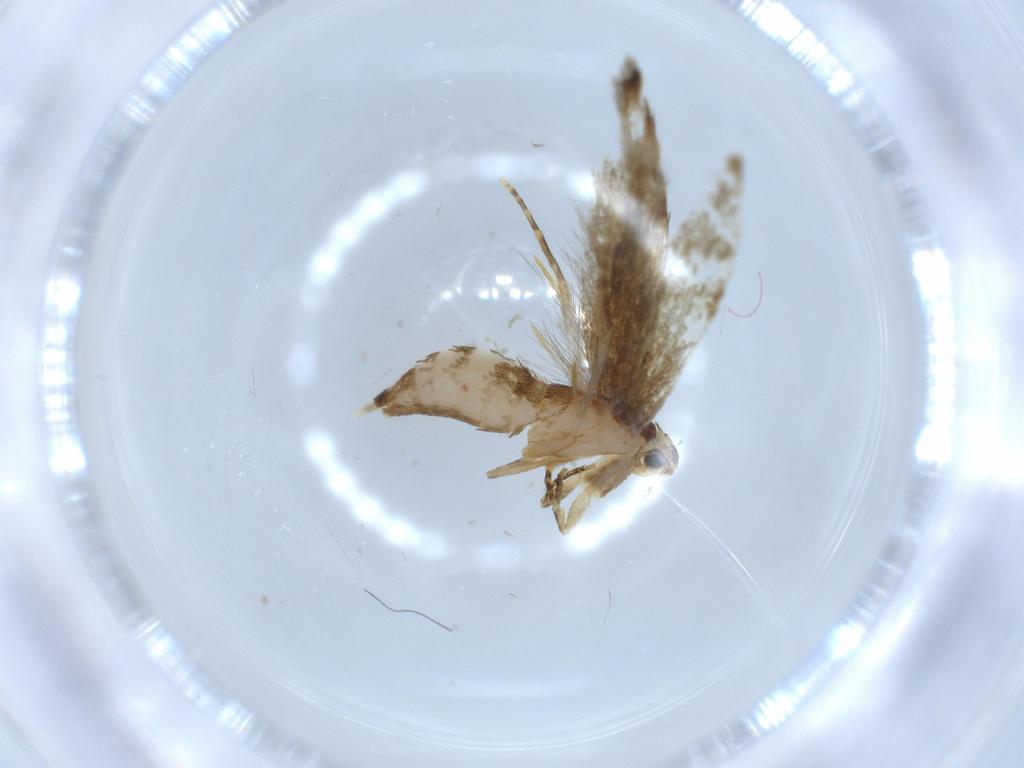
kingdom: Animalia
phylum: Arthropoda
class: Insecta
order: Lepidoptera
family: Tineidae
